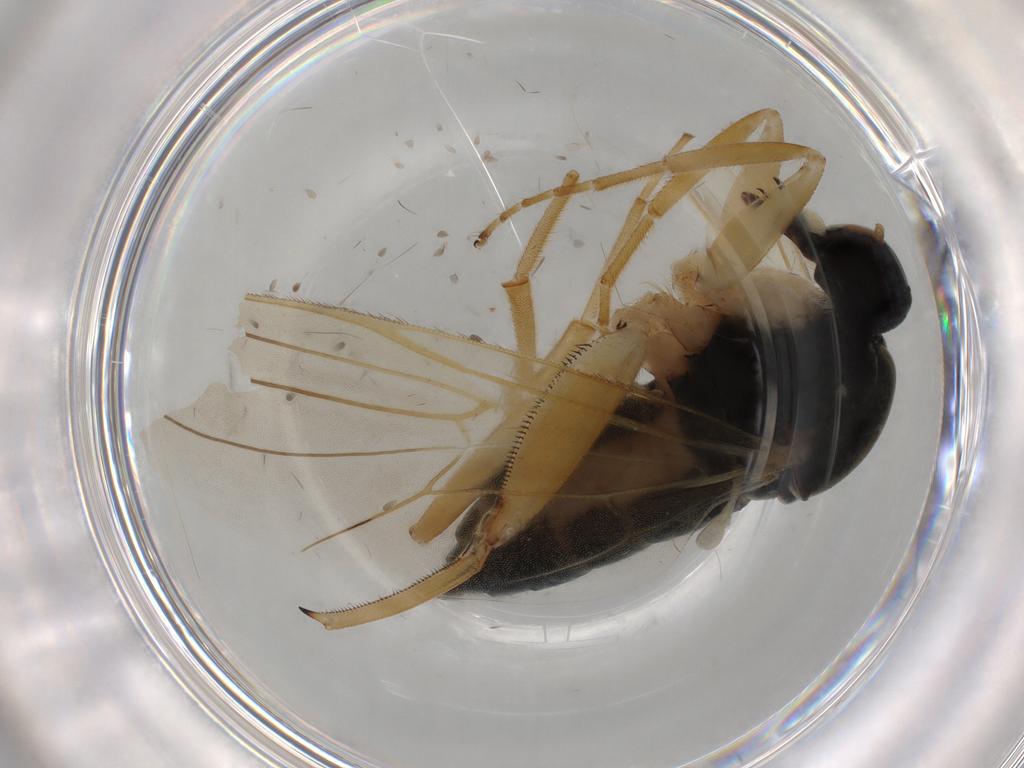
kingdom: Animalia
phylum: Arthropoda
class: Insecta
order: Diptera
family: Hybotidae
